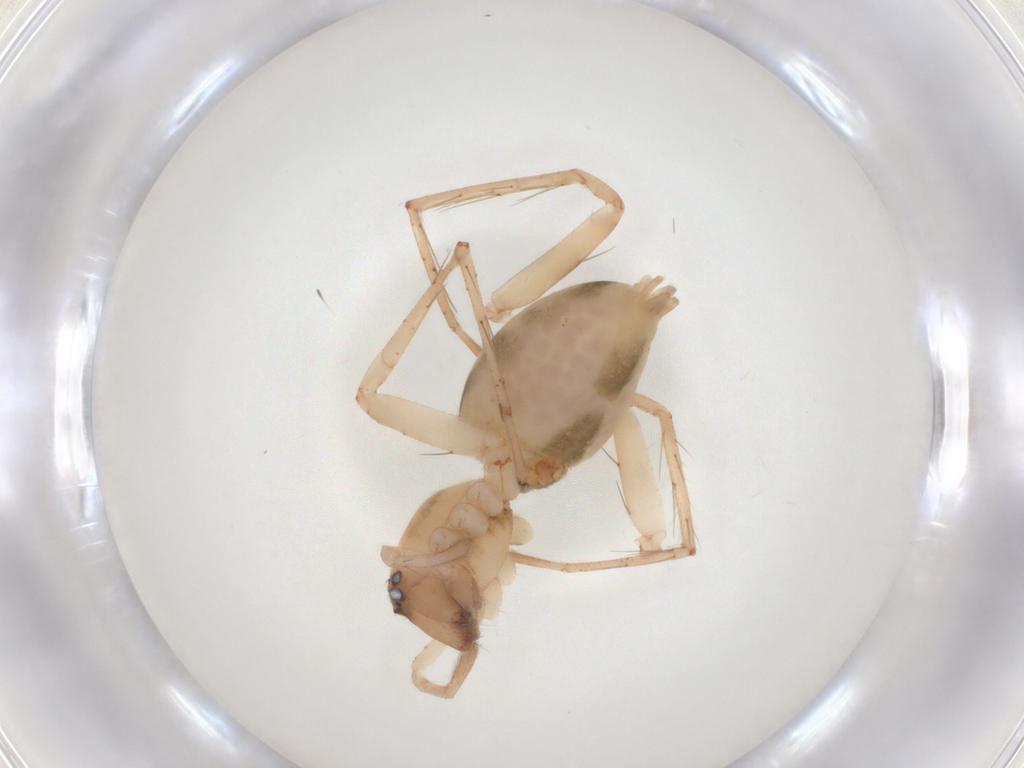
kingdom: Animalia
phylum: Arthropoda
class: Arachnida
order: Araneae
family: Anyphaenidae
